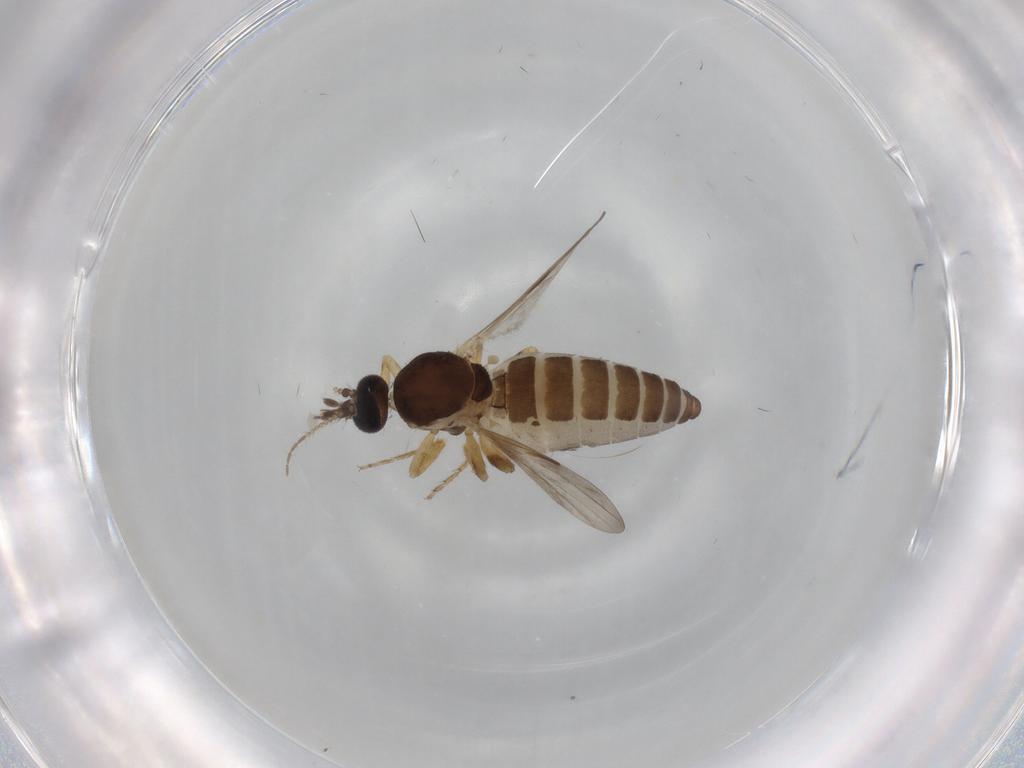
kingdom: Animalia
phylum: Arthropoda
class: Insecta
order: Diptera
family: Ceratopogonidae
